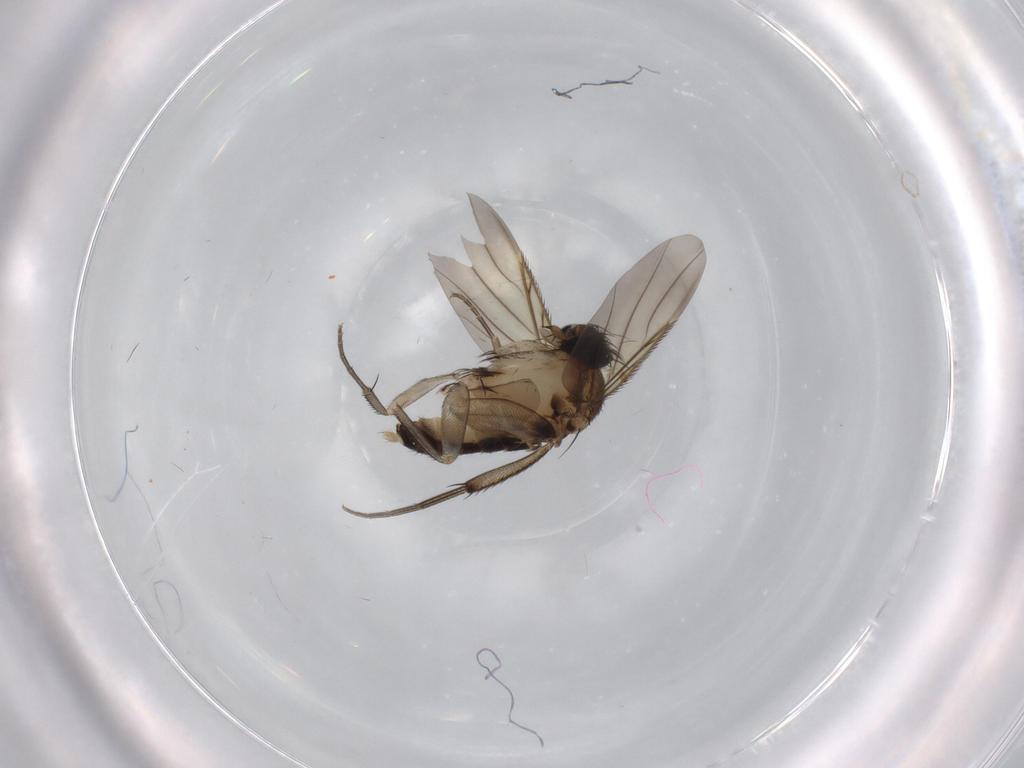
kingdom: Animalia
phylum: Arthropoda
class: Insecta
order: Diptera
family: Phoridae
